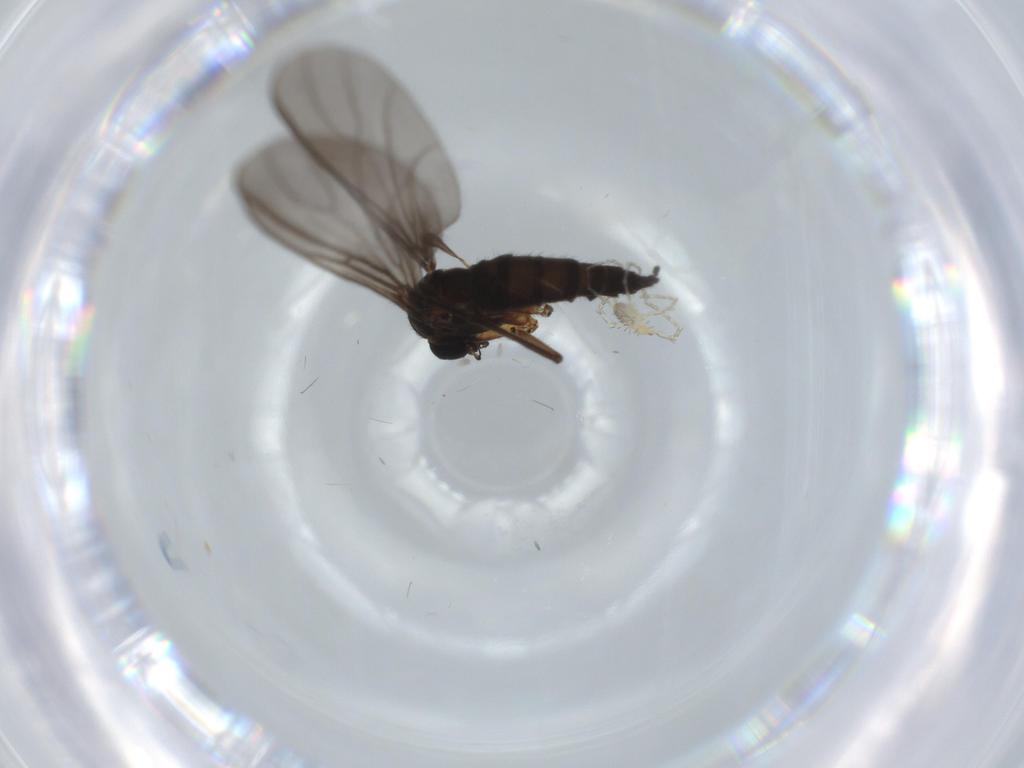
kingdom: Animalia
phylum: Arthropoda
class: Insecta
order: Diptera
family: Sciaridae
